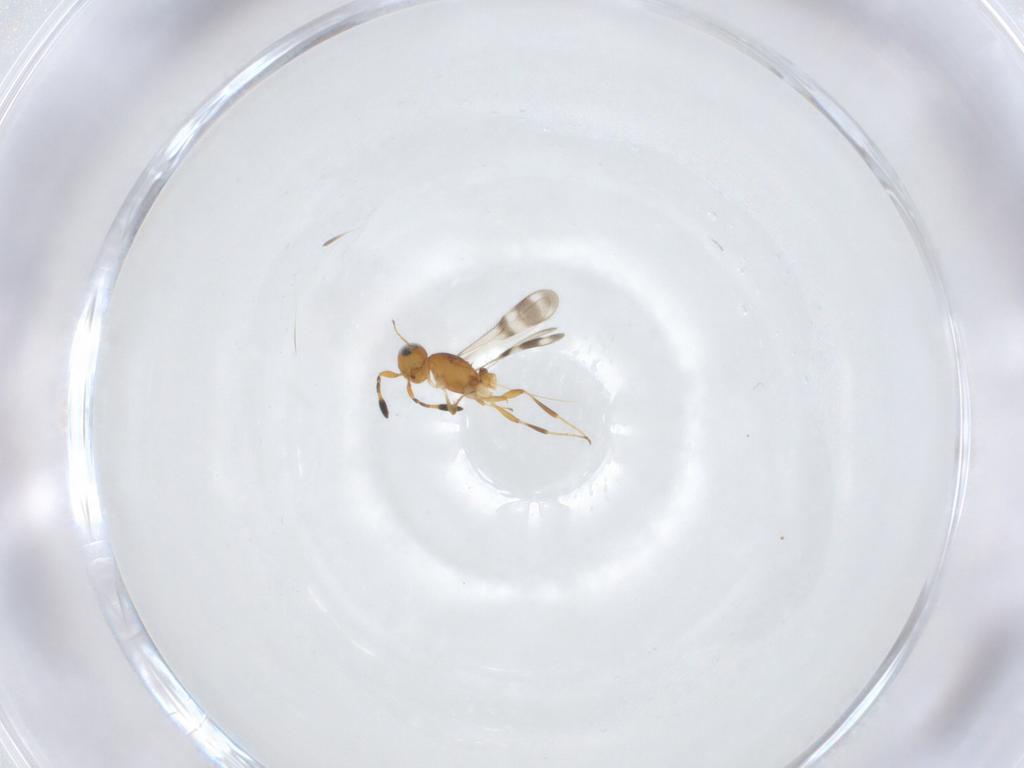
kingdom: Animalia
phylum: Arthropoda
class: Insecta
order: Hymenoptera
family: Scelionidae
